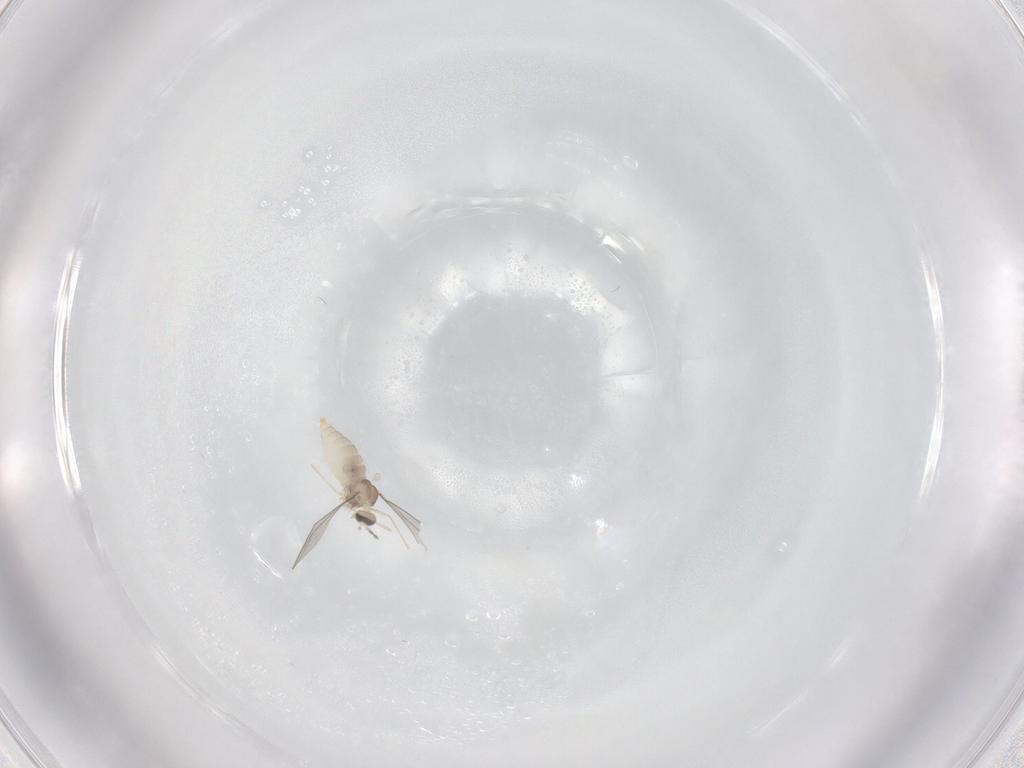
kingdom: Animalia
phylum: Arthropoda
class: Insecta
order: Diptera
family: Cecidomyiidae
